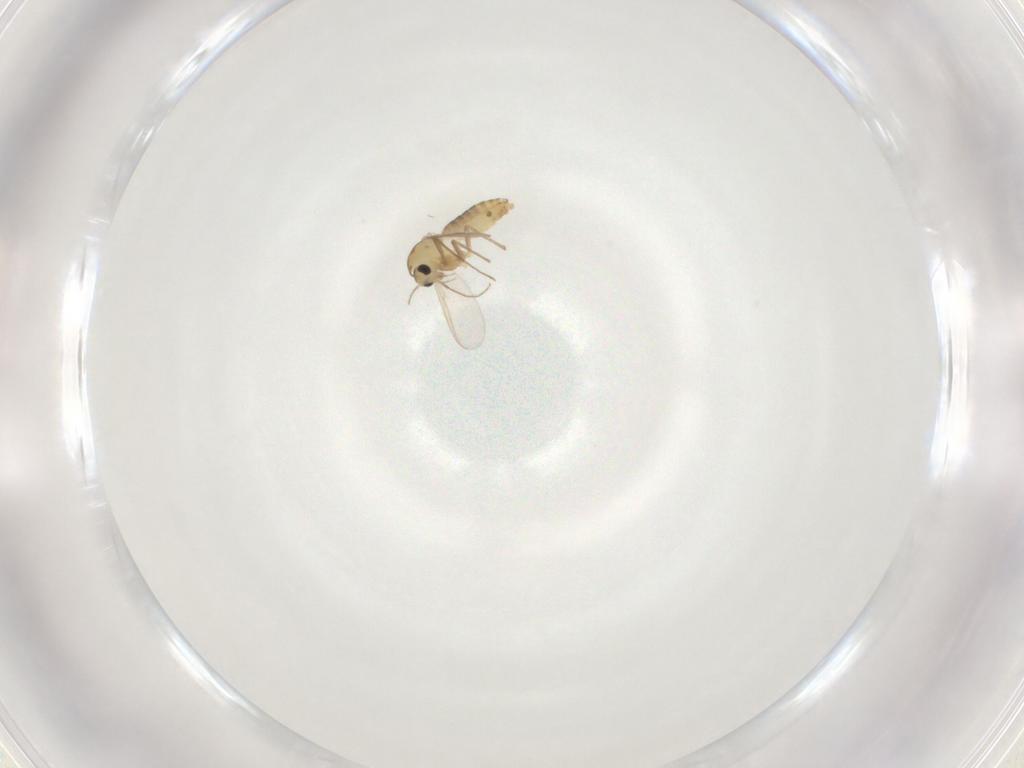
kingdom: Animalia
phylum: Arthropoda
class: Insecta
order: Diptera
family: Chironomidae
